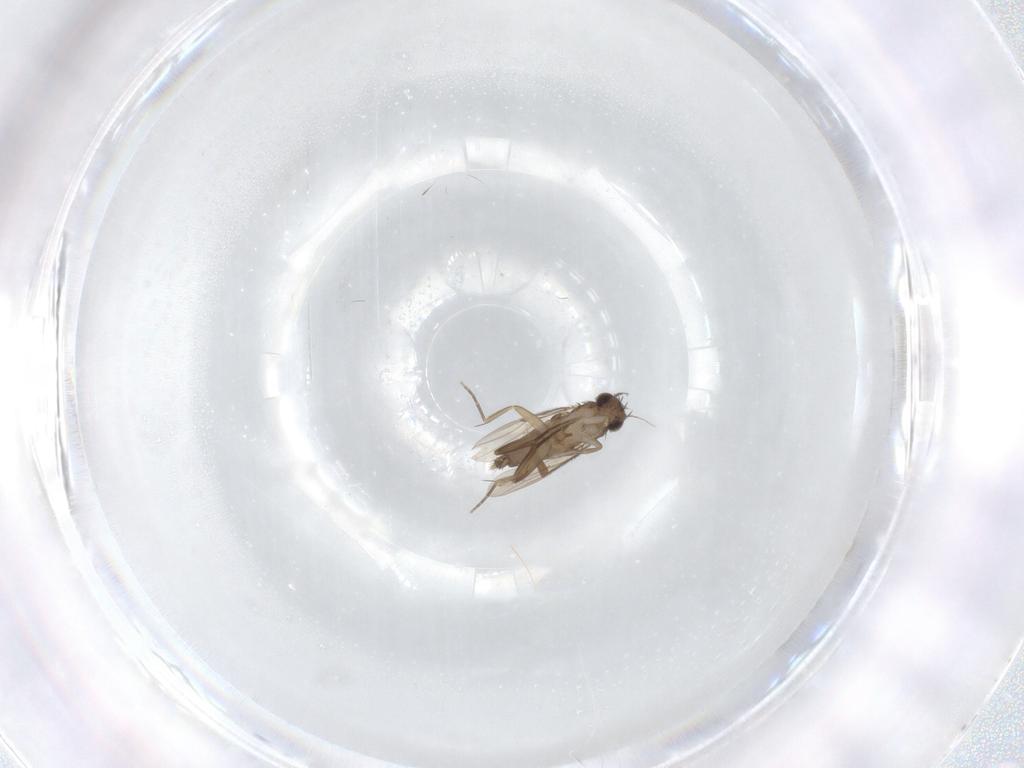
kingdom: Animalia
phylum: Arthropoda
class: Insecta
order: Diptera
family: Phoridae
